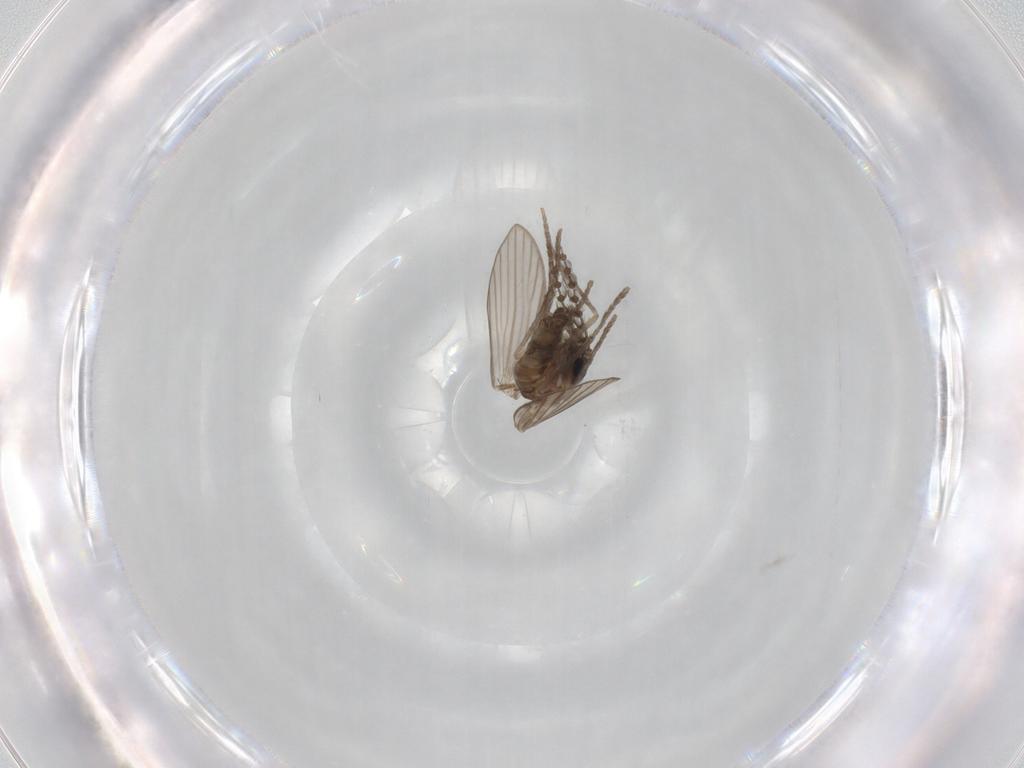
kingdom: Animalia
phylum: Arthropoda
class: Insecta
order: Diptera
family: Psychodidae
